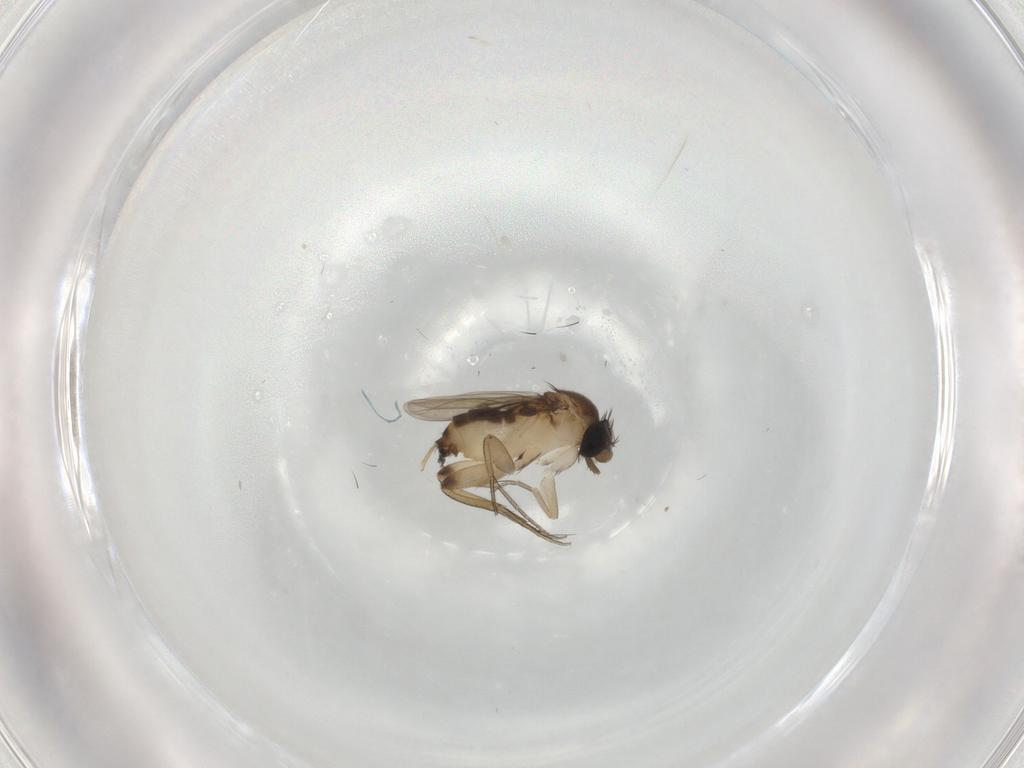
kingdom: Animalia
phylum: Arthropoda
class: Insecta
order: Diptera
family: Phoridae
